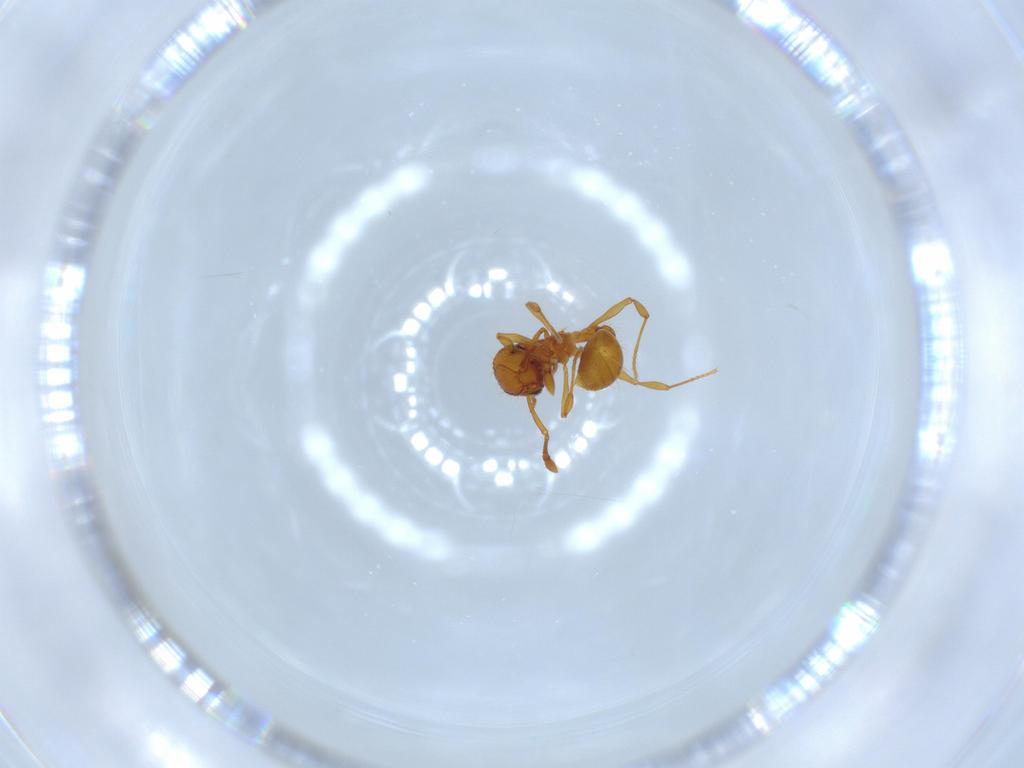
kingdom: Animalia
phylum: Arthropoda
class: Insecta
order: Hymenoptera
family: Formicidae
